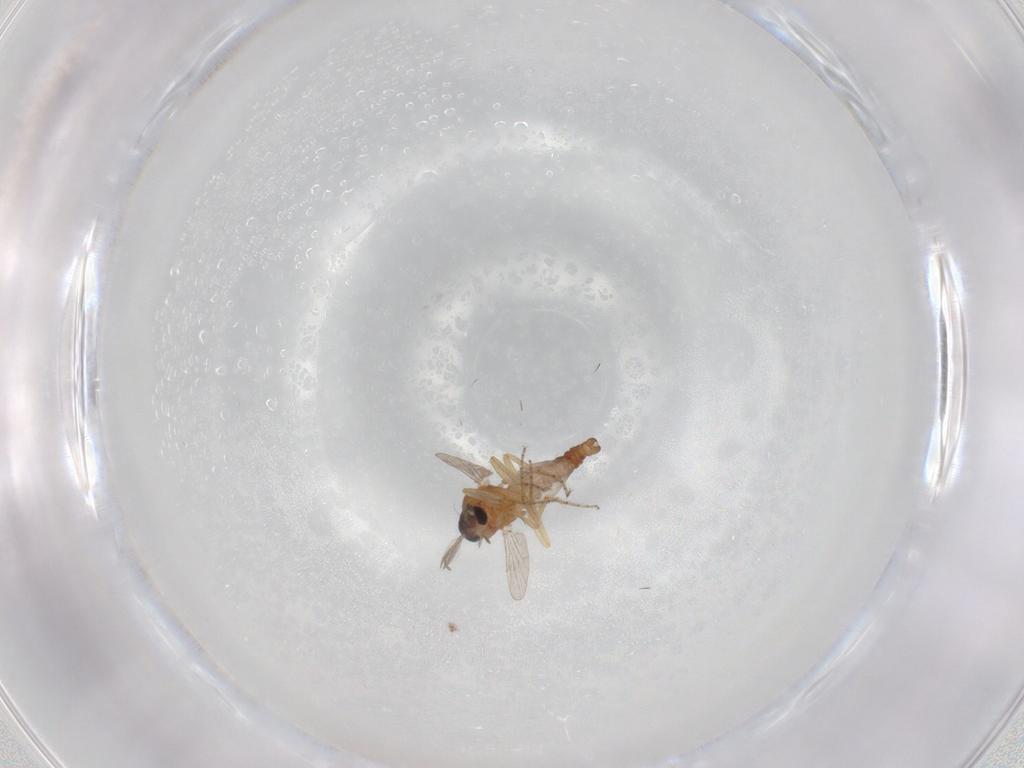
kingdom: Animalia
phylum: Arthropoda
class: Insecta
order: Diptera
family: Ceratopogonidae
